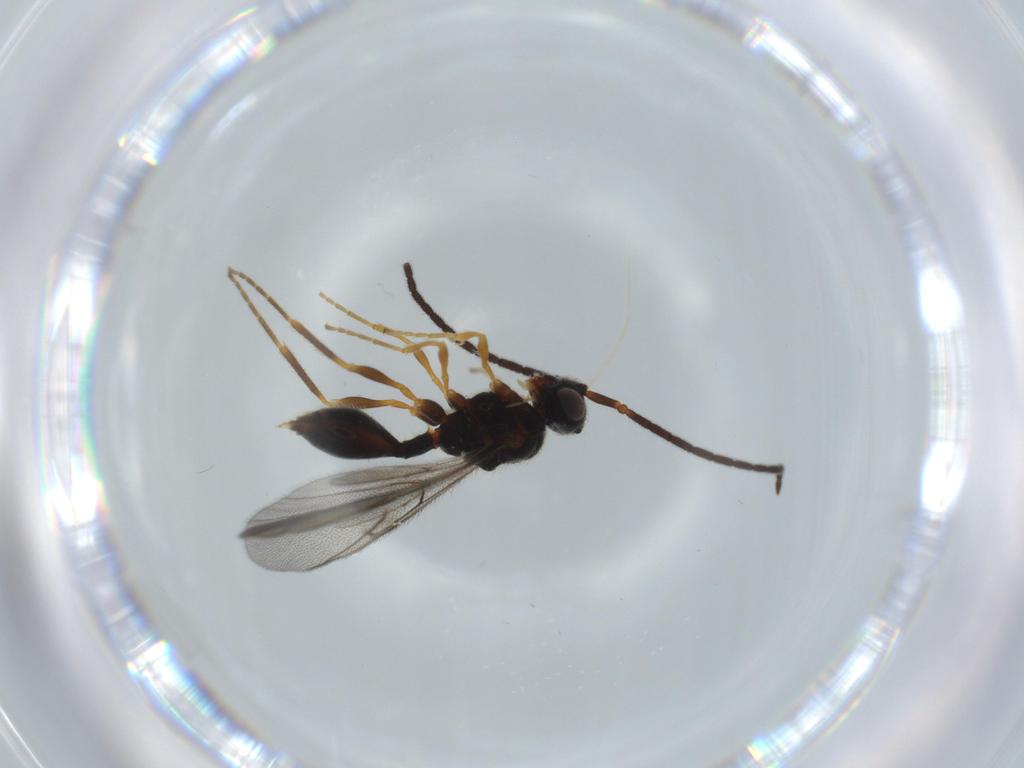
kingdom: Animalia
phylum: Arthropoda
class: Insecta
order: Hymenoptera
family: Diapriidae
